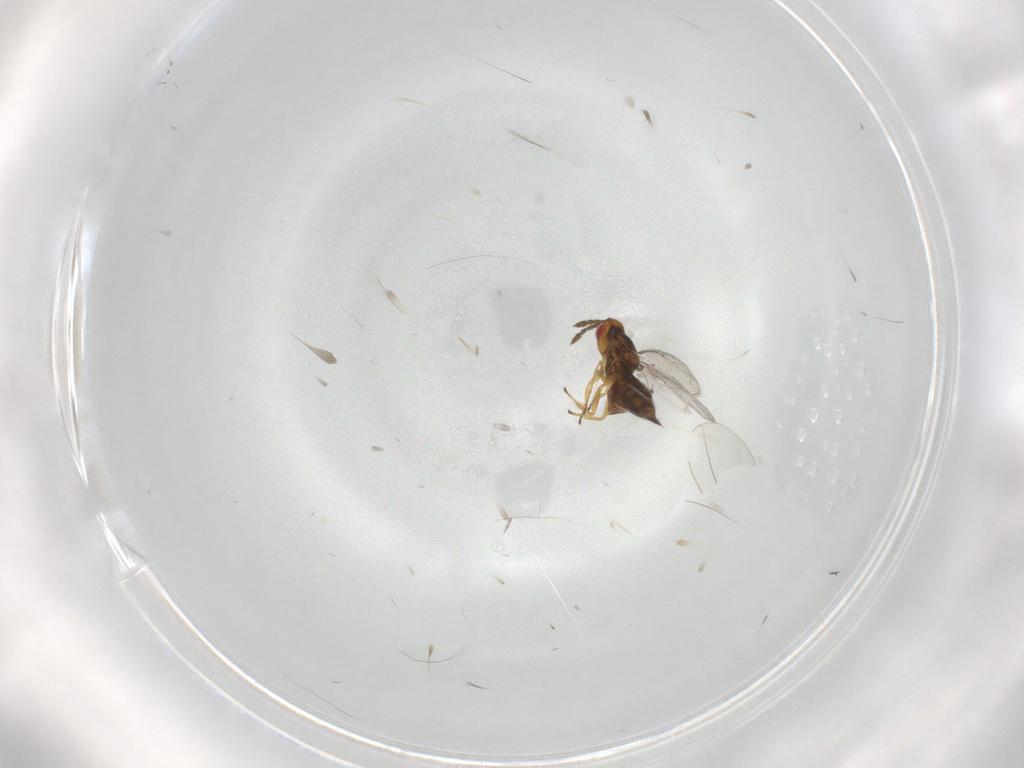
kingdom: Animalia
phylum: Arthropoda
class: Insecta
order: Hymenoptera
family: Eulophidae
